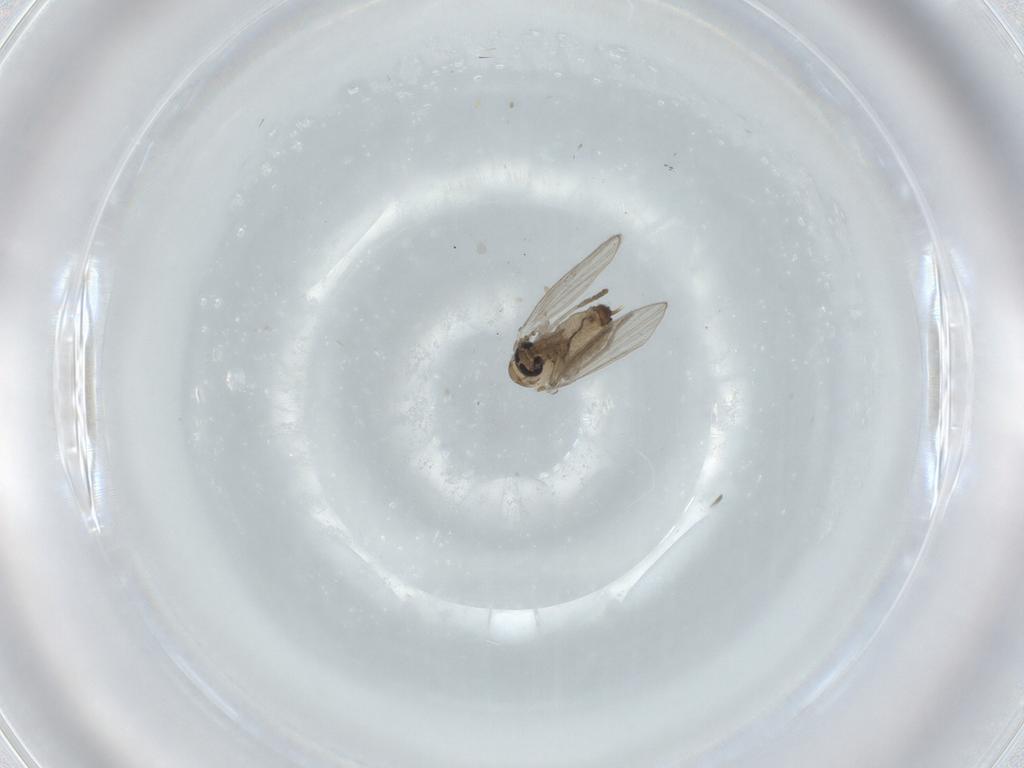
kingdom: Animalia
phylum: Arthropoda
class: Insecta
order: Diptera
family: Psychodidae
